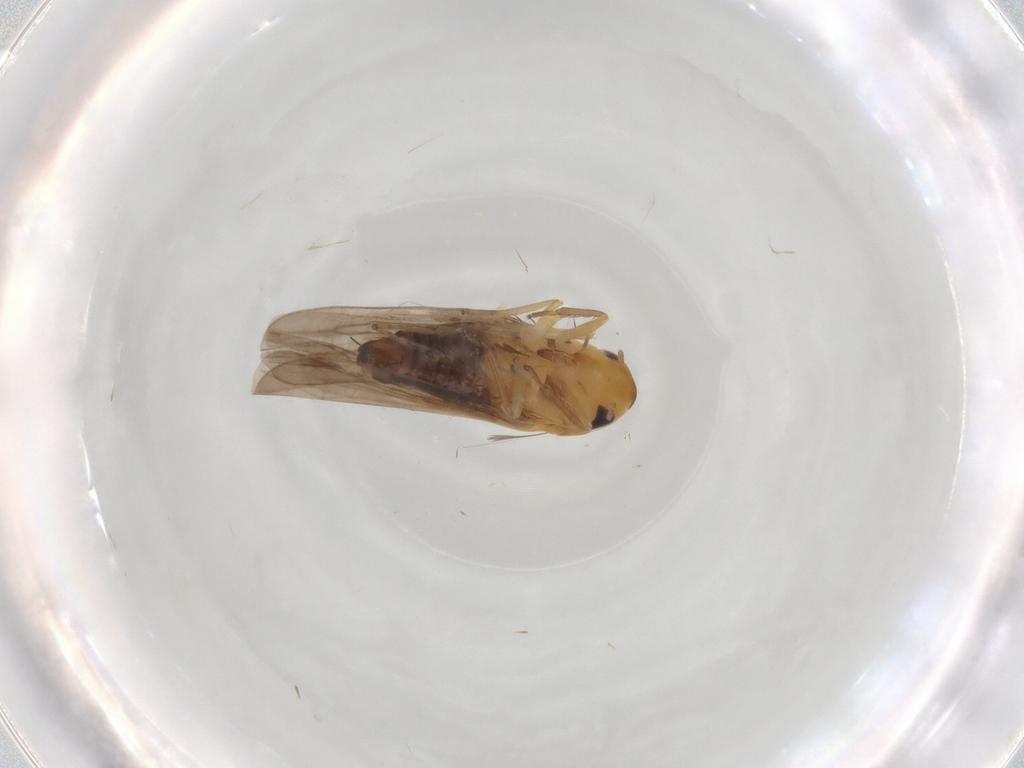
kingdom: Animalia
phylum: Arthropoda
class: Insecta
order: Hemiptera
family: Cicadellidae
